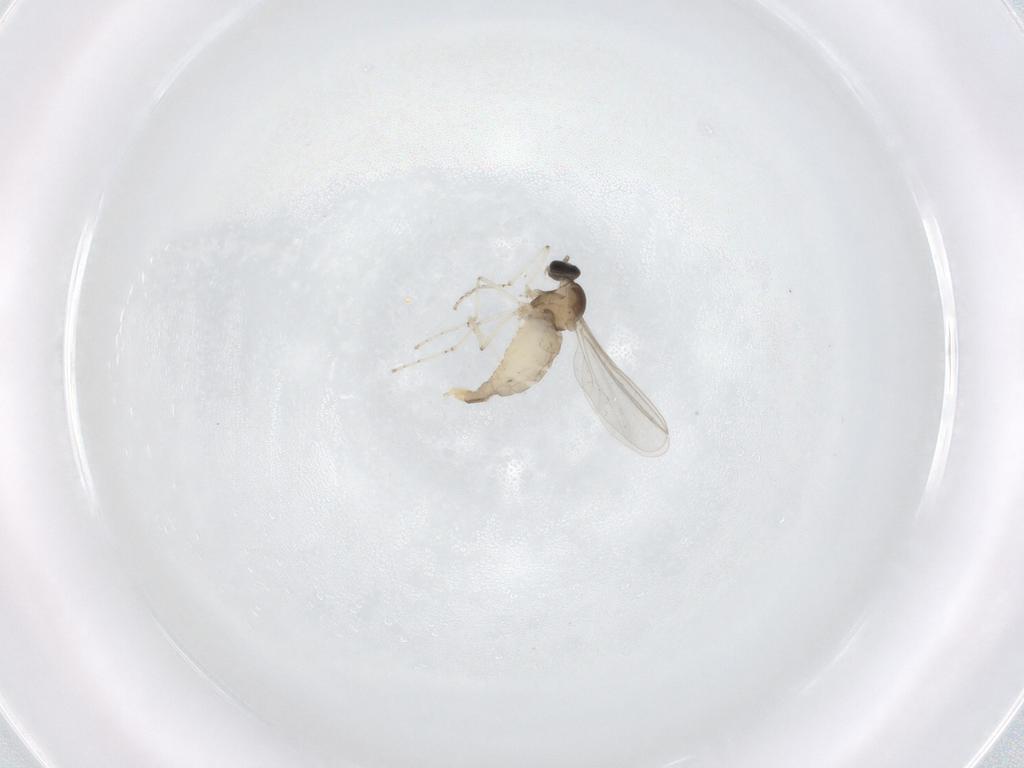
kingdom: Animalia
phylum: Arthropoda
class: Insecta
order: Diptera
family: Cecidomyiidae
